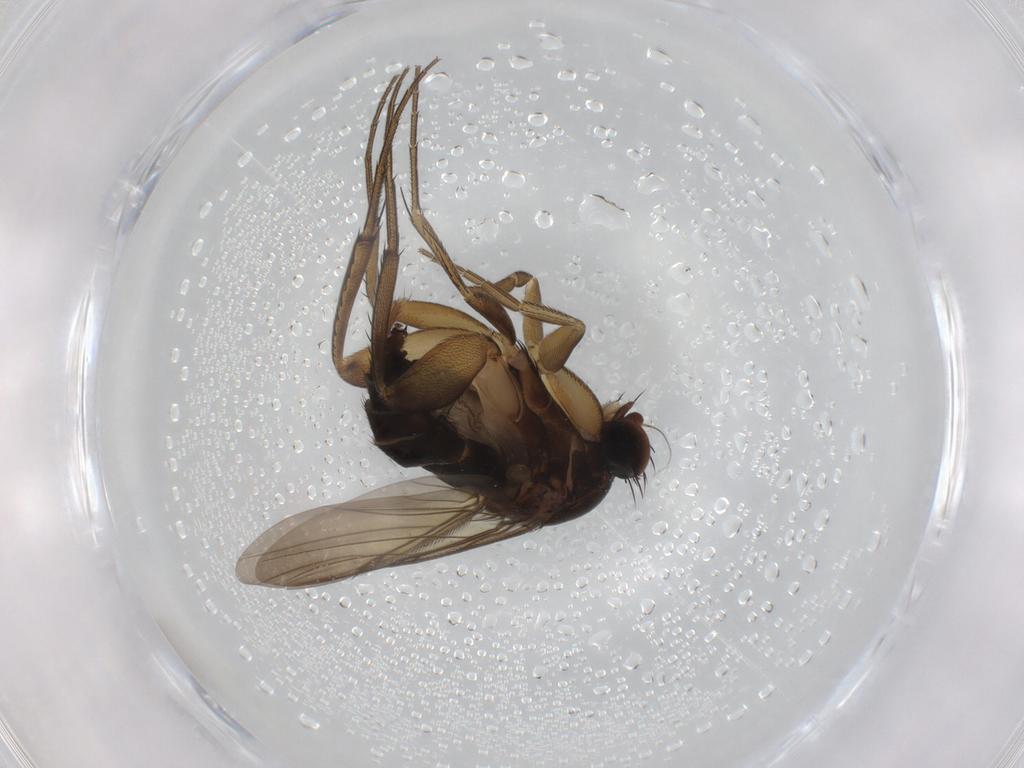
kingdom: Animalia
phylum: Arthropoda
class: Insecta
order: Diptera
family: Phoridae
